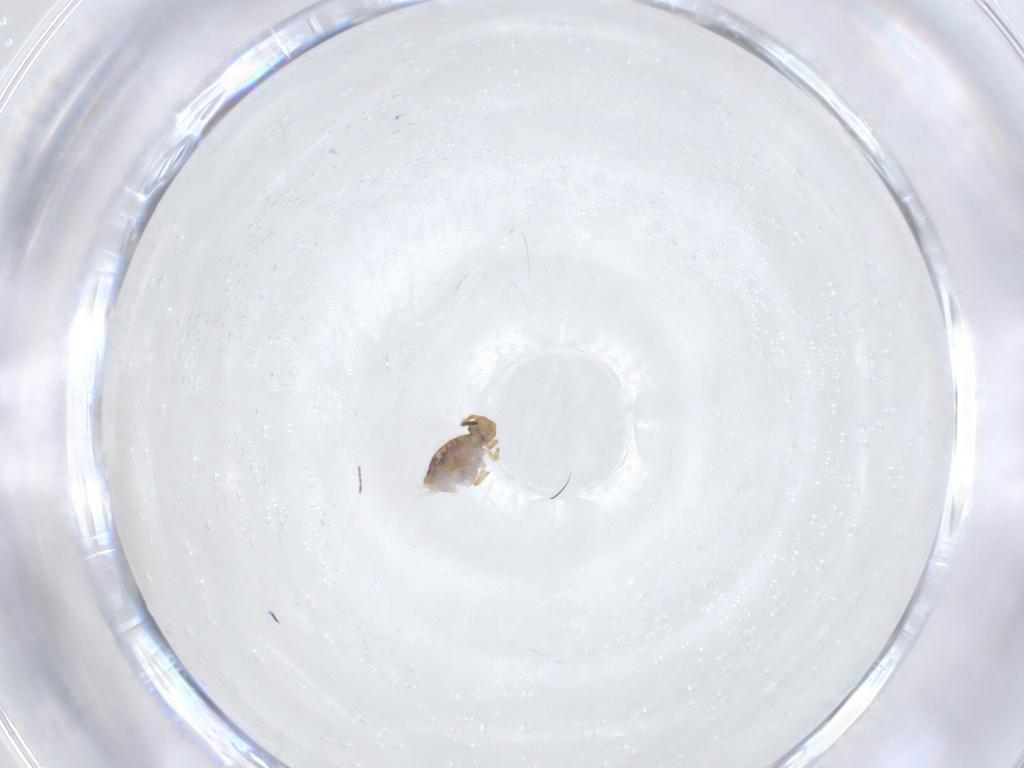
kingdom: Animalia
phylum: Arthropoda
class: Collembola
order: Symphypleona
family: Katiannidae
